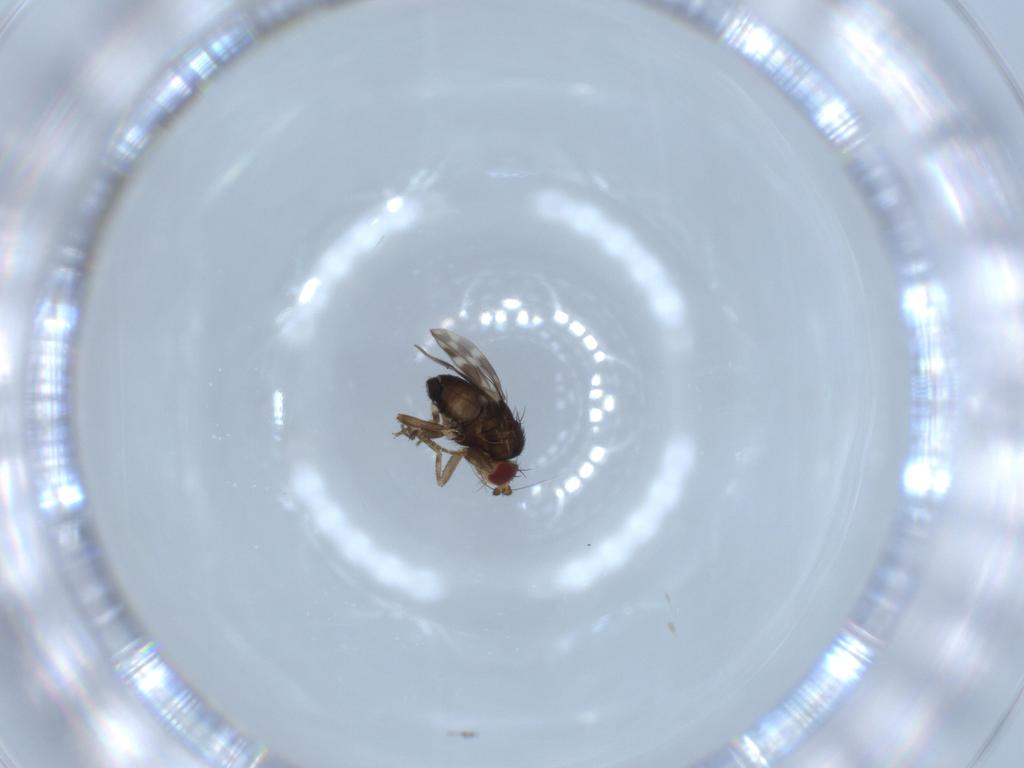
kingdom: Animalia
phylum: Arthropoda
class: Insecta
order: Diptera
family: Sphaeroceridae
